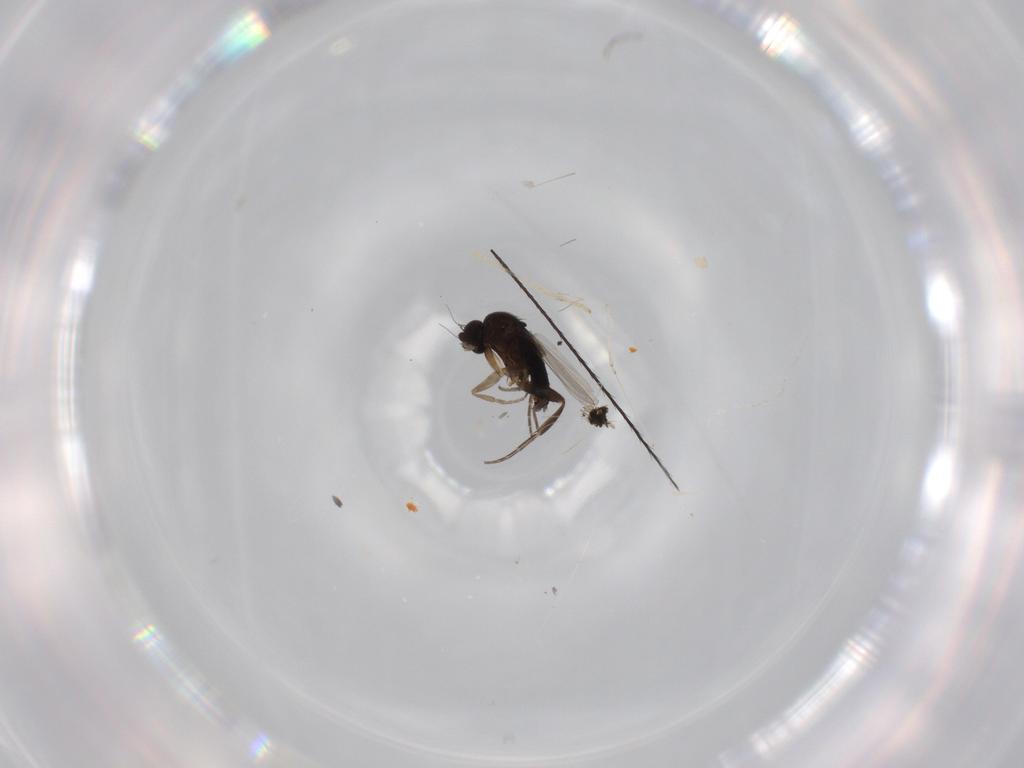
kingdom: Animalia
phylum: Arthropoda
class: Insecta
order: Diptera
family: Phoridae
